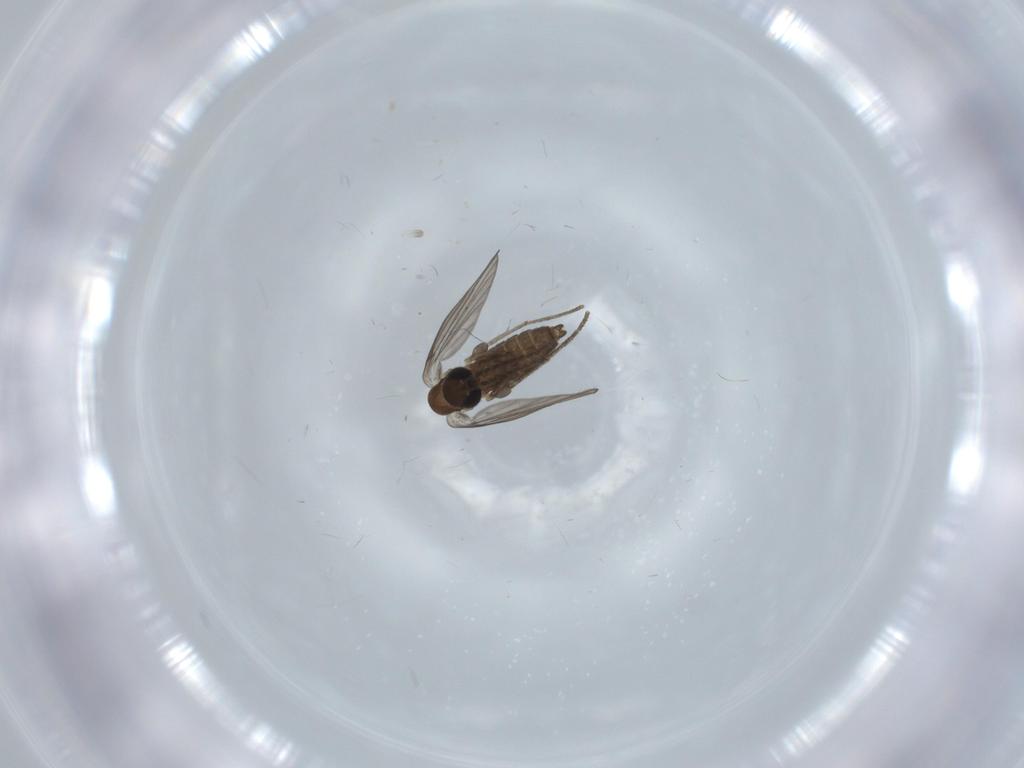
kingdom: Animalia
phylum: Arthropoda
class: Insecta
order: Diptera
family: Psychodidae
